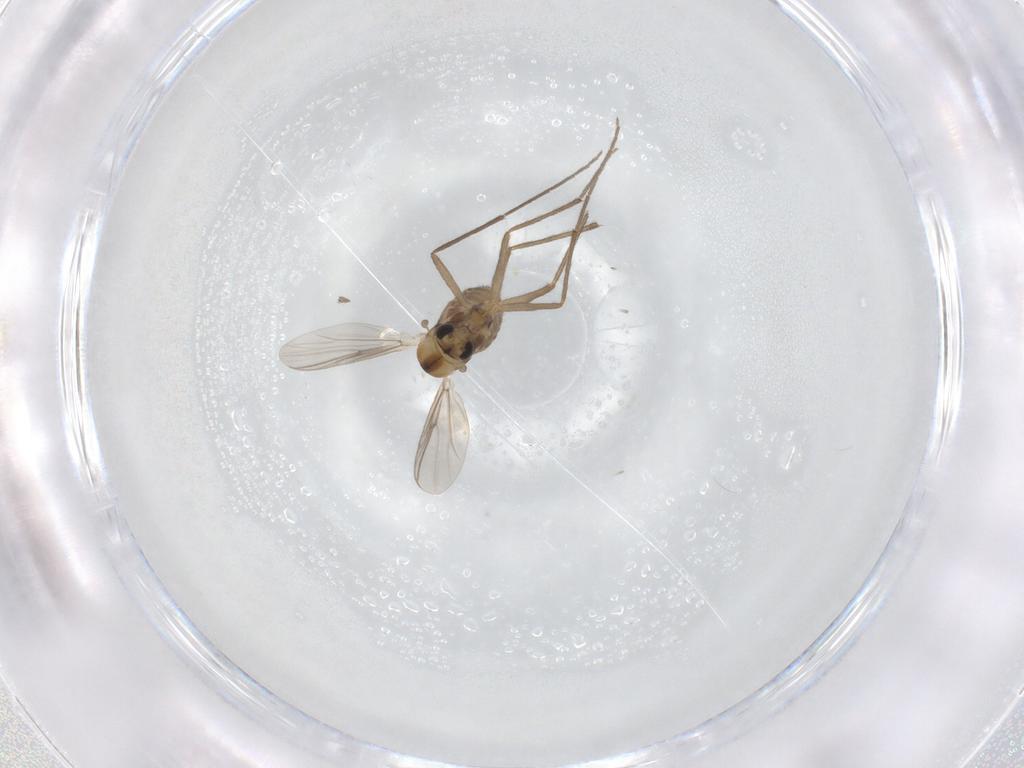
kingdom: Animalia
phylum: Arthropoda
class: Insecta
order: Diptera
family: Chironomidae
